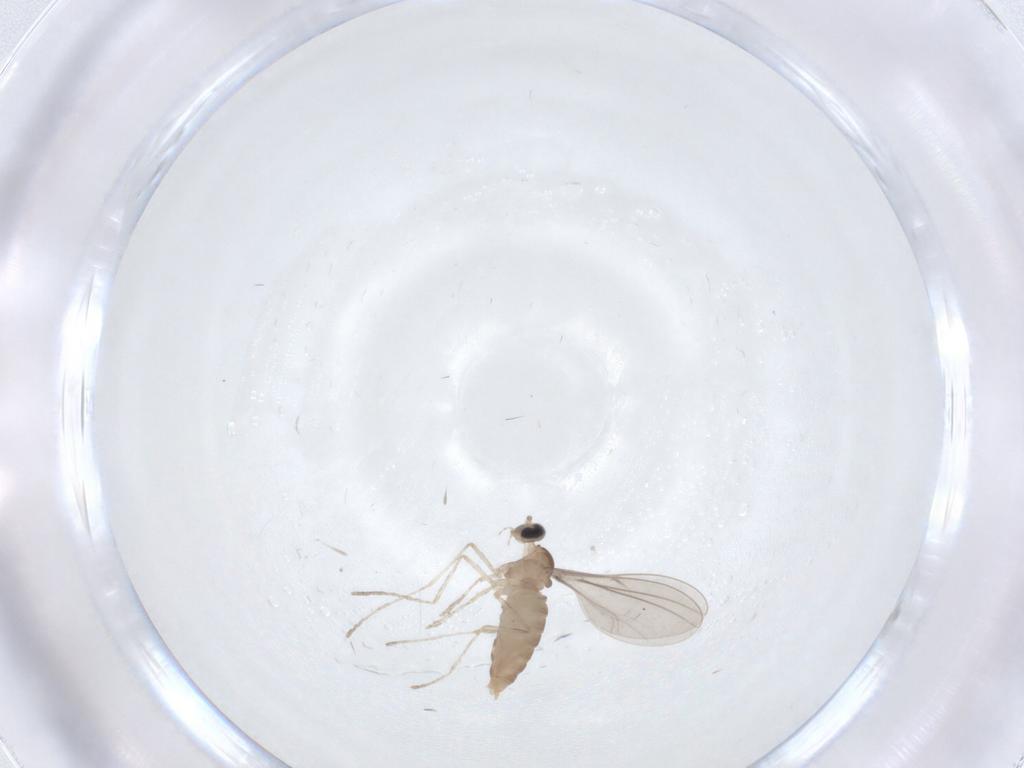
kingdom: Animalia
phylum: Arthropoda
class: Insecta
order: Diptera
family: Cecidomyiidae
